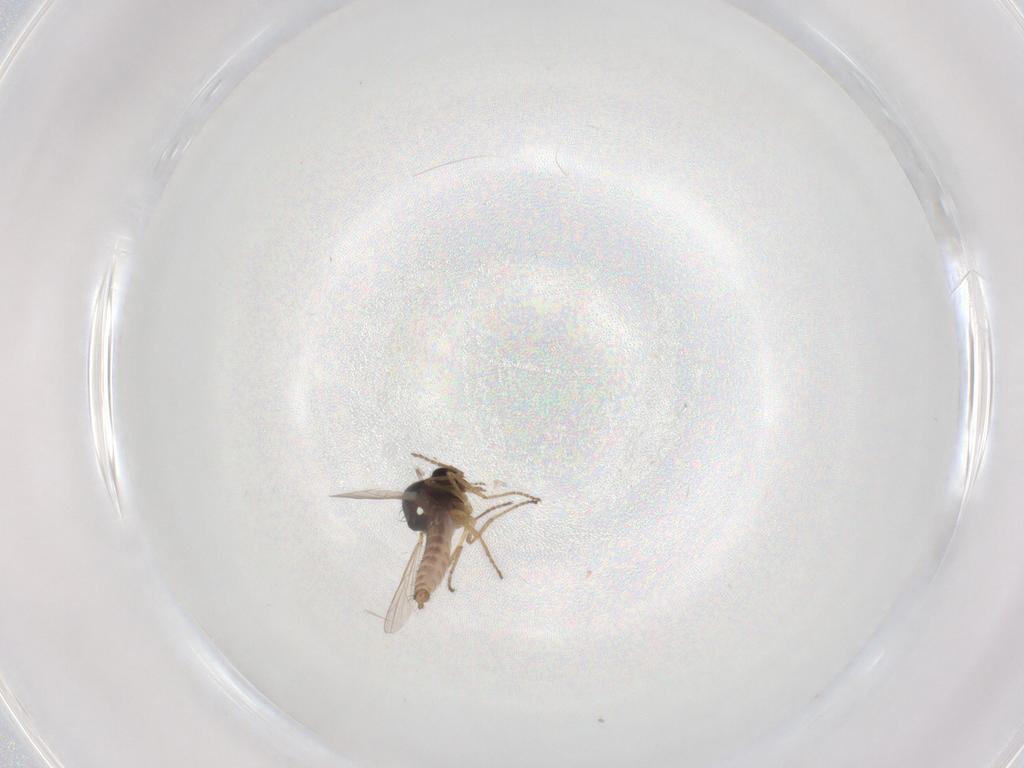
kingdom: Animalia
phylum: Arthropoda
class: Insecta
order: Diptera
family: Ceratopogonidae
